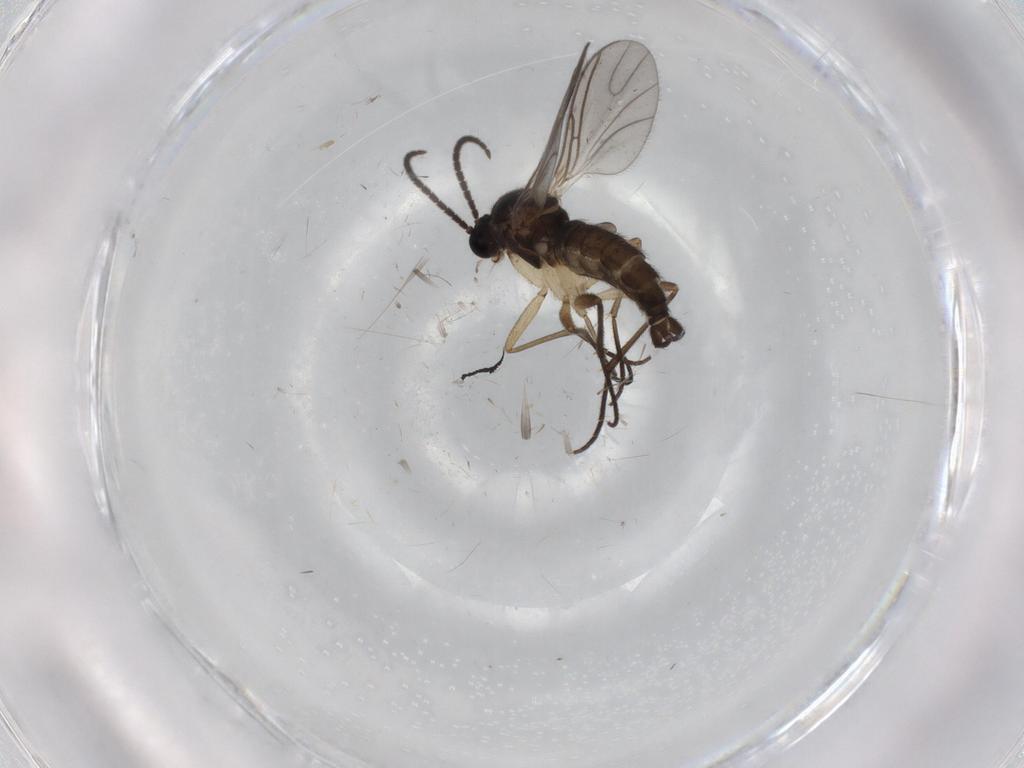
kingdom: Animalia
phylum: Arthropoda
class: Insecta
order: Diptera
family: Sciaridae
